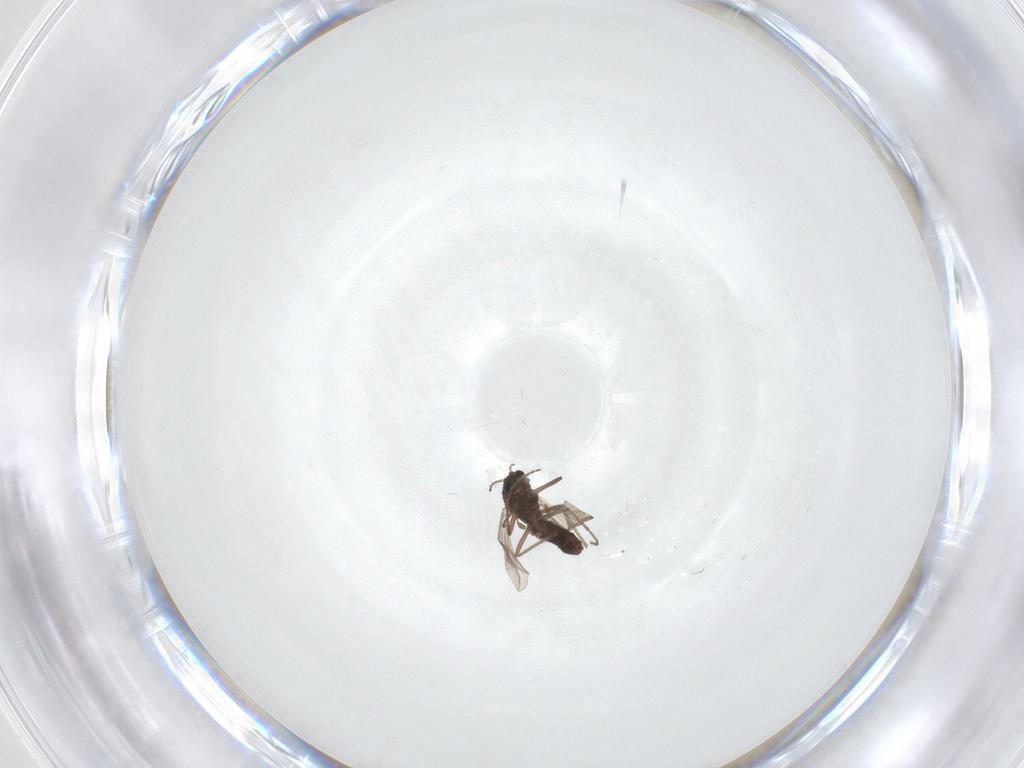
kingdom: Animalia
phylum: Arthropoda
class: Insecta
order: Diptera
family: Chironomidae
